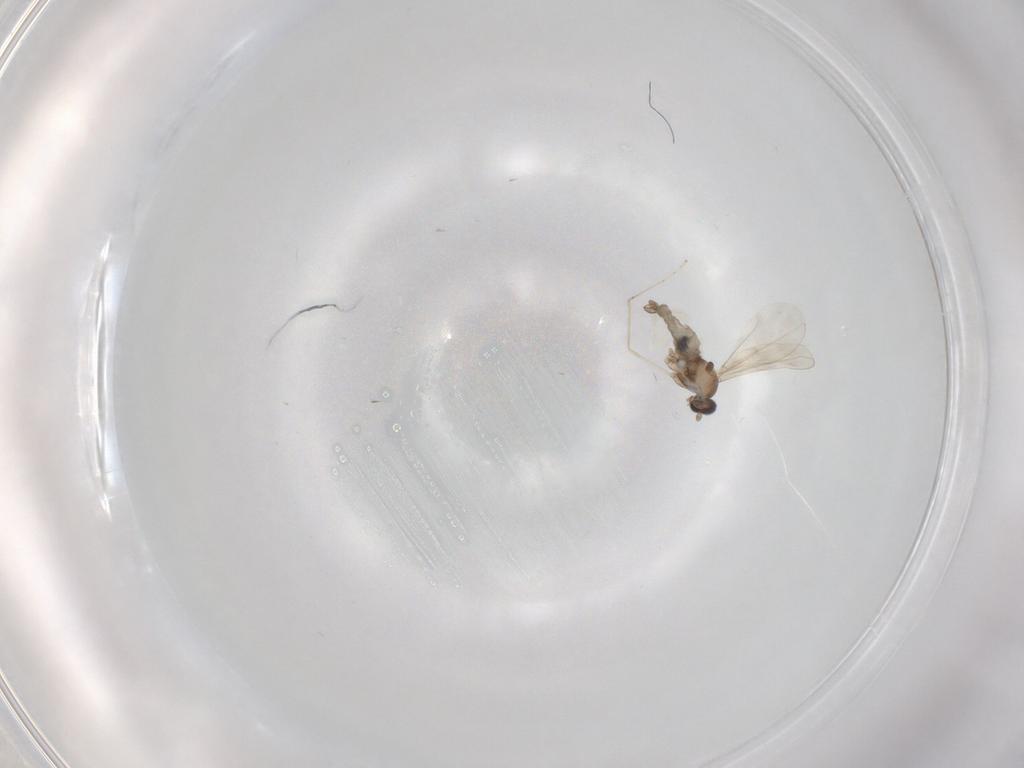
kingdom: Animalia
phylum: Arthropoda
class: Insecta
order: Diptera
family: Cecidomyiidae
